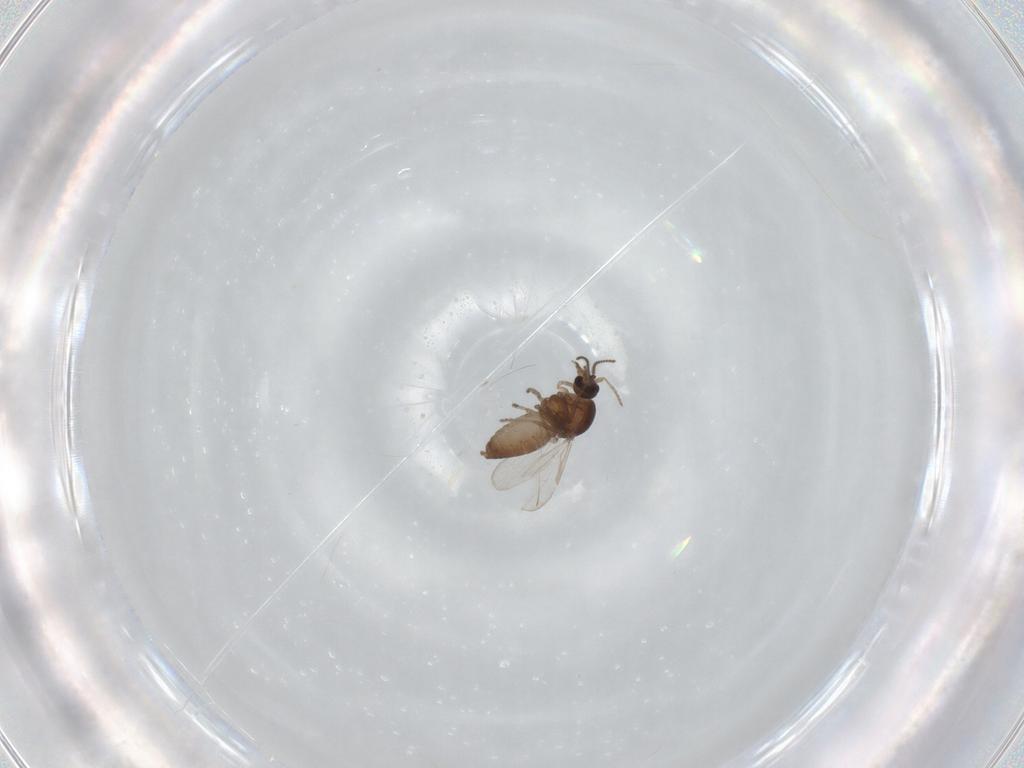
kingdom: Animalia
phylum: Arthropoda
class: Insecta
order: Diptera
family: Ceratopogonidae
